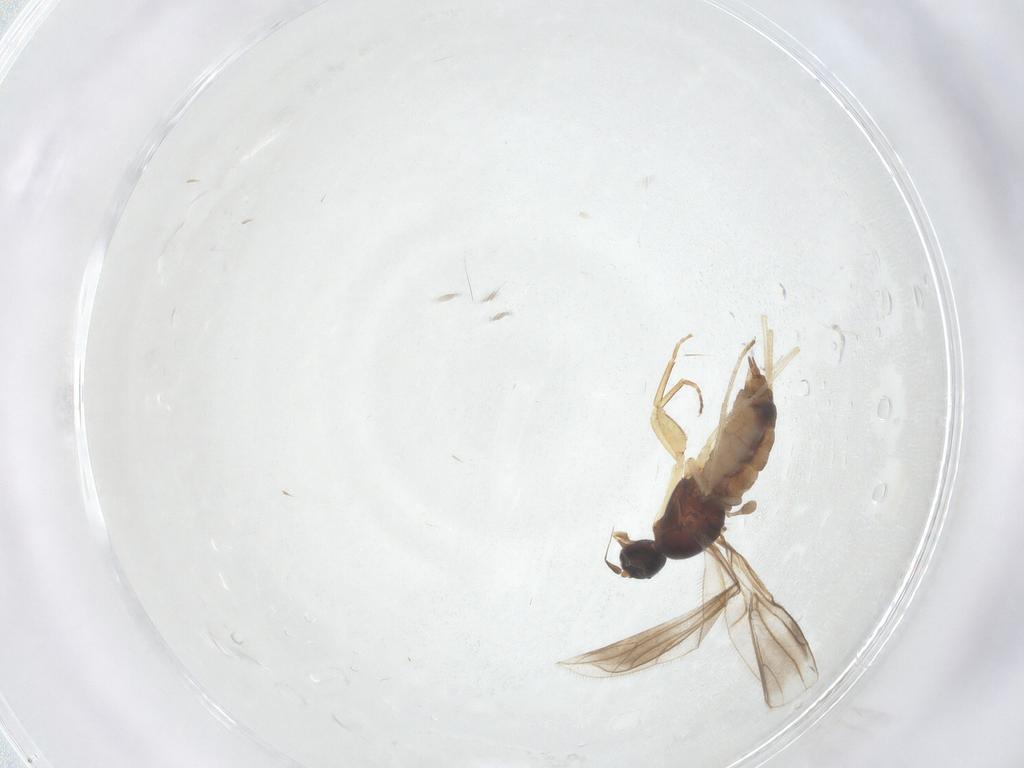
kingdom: Animalia
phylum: Arthropoda
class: Insecta
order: Diptera
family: Empididae
